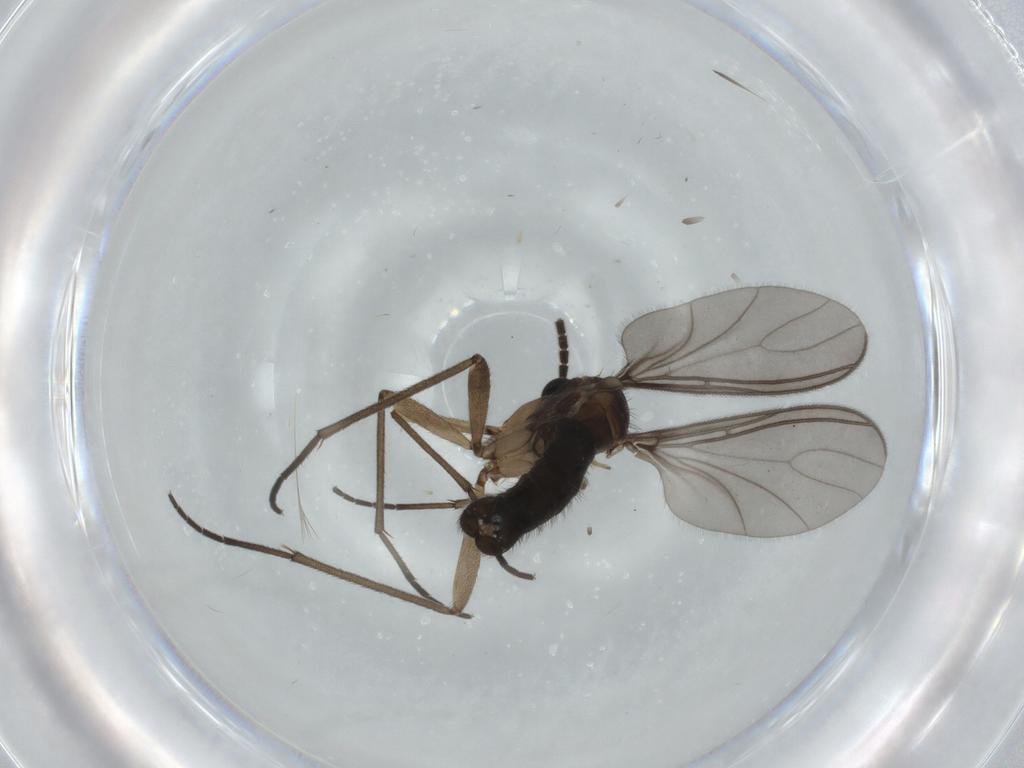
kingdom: Animalia
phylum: Arthropoda
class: Insecta
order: Diptera
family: Sciaridae
